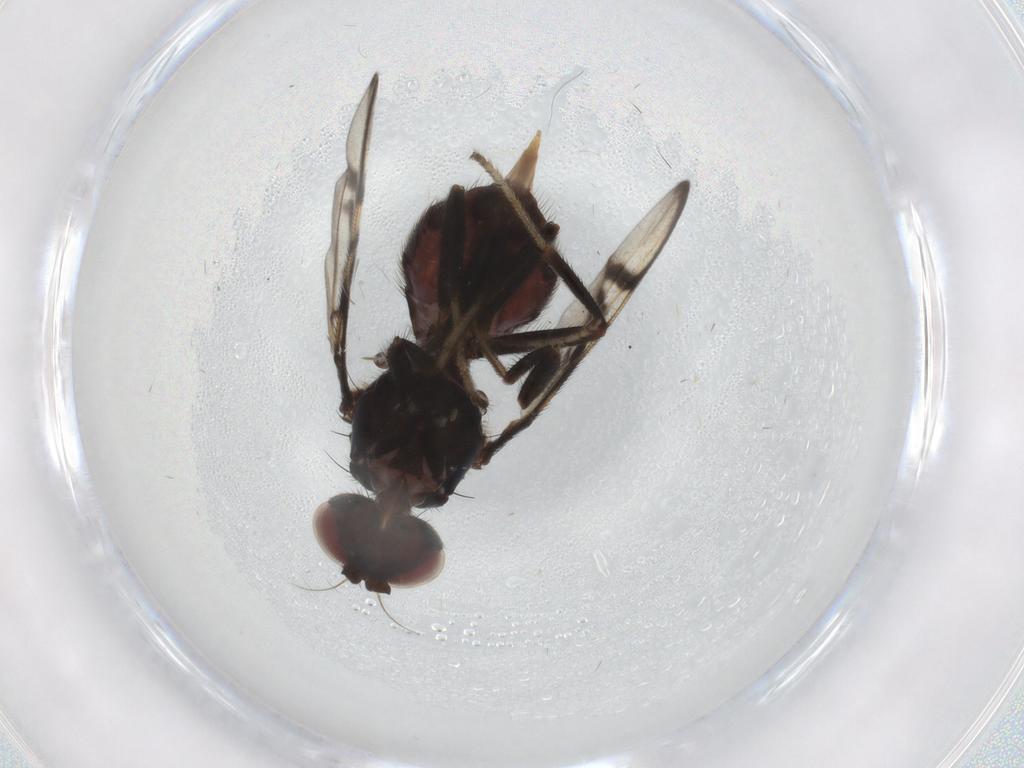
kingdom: Animalia
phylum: Arthropoda
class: Insecta
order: Diptera
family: Ceratopogonidae
